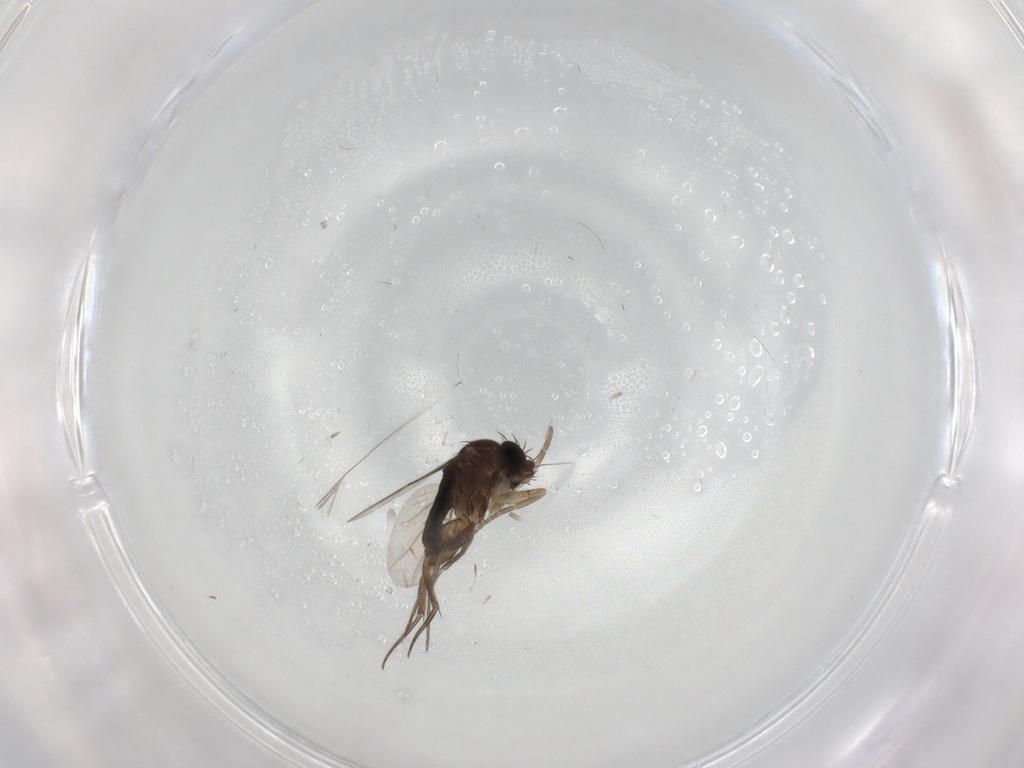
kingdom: Animalia
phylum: Arthropoda
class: Insecta
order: Diptera
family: Phoridae
